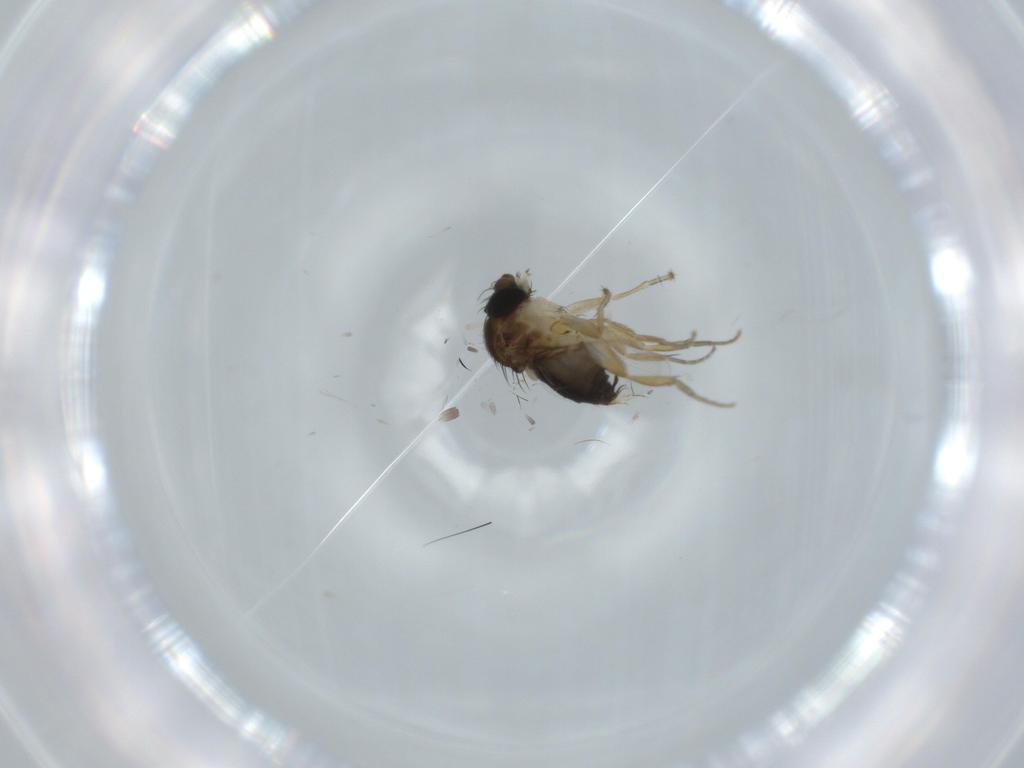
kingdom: Animalia
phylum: Arthropoda
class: Insecta
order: Diptera
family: Phoridae
